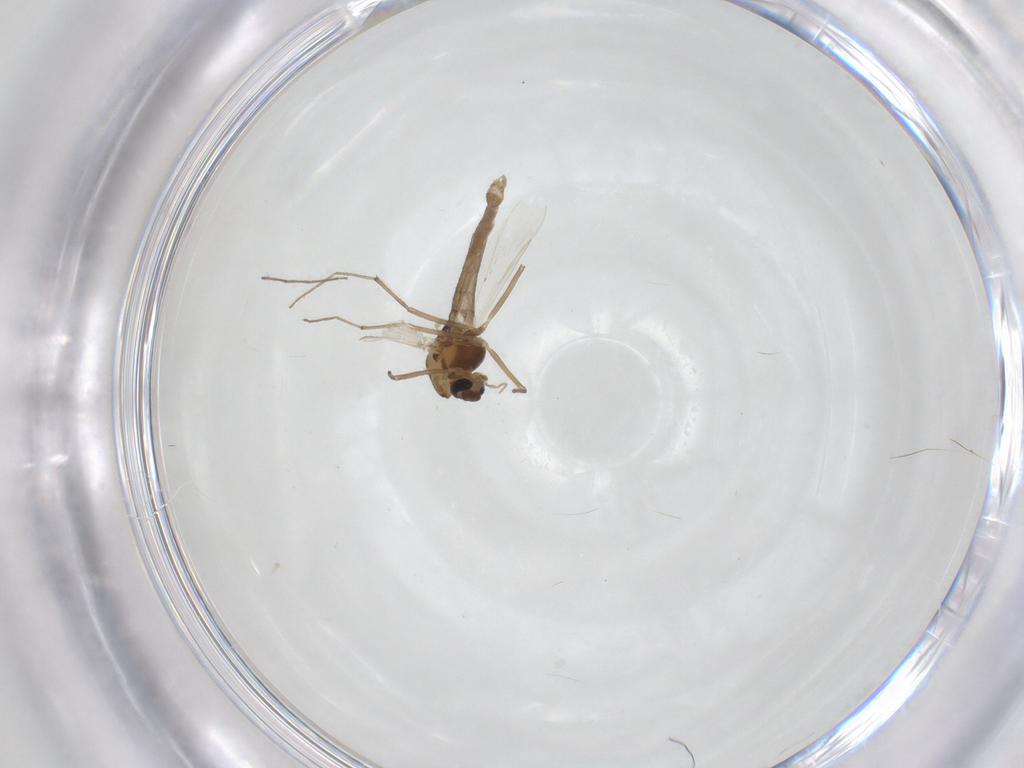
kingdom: Animalia
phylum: Arthropoda
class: Insecta
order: Diptera
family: Chironomidae
